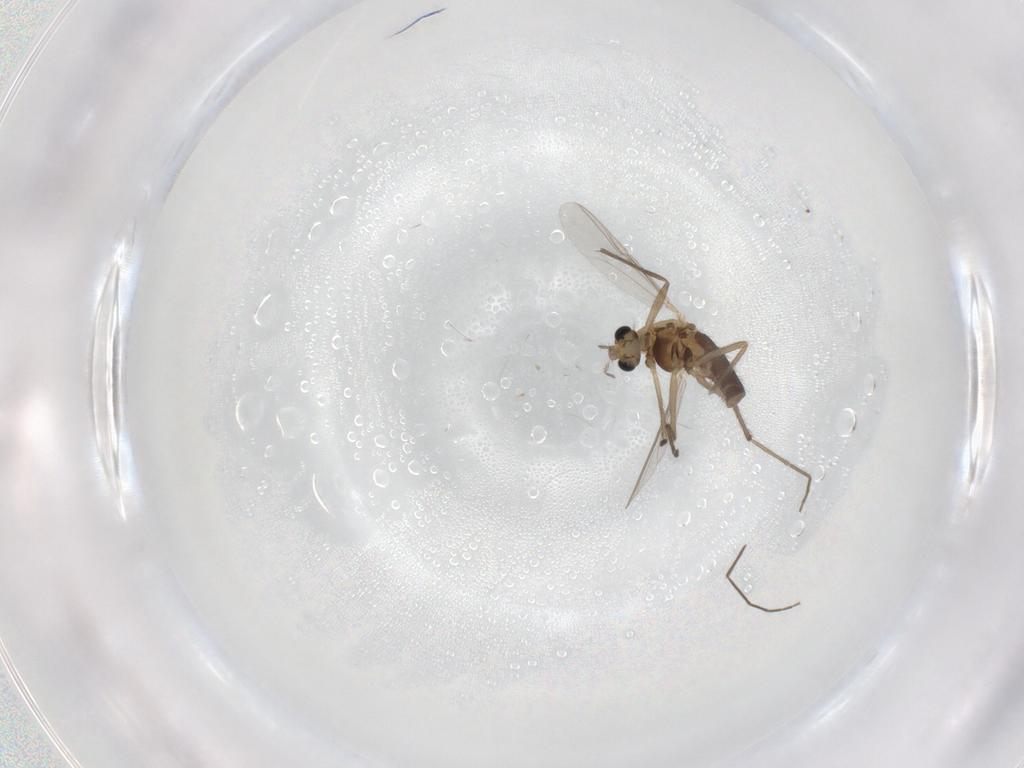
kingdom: Animalia
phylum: Arthropoda
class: Insecta
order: Diptera
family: Chironomidae
